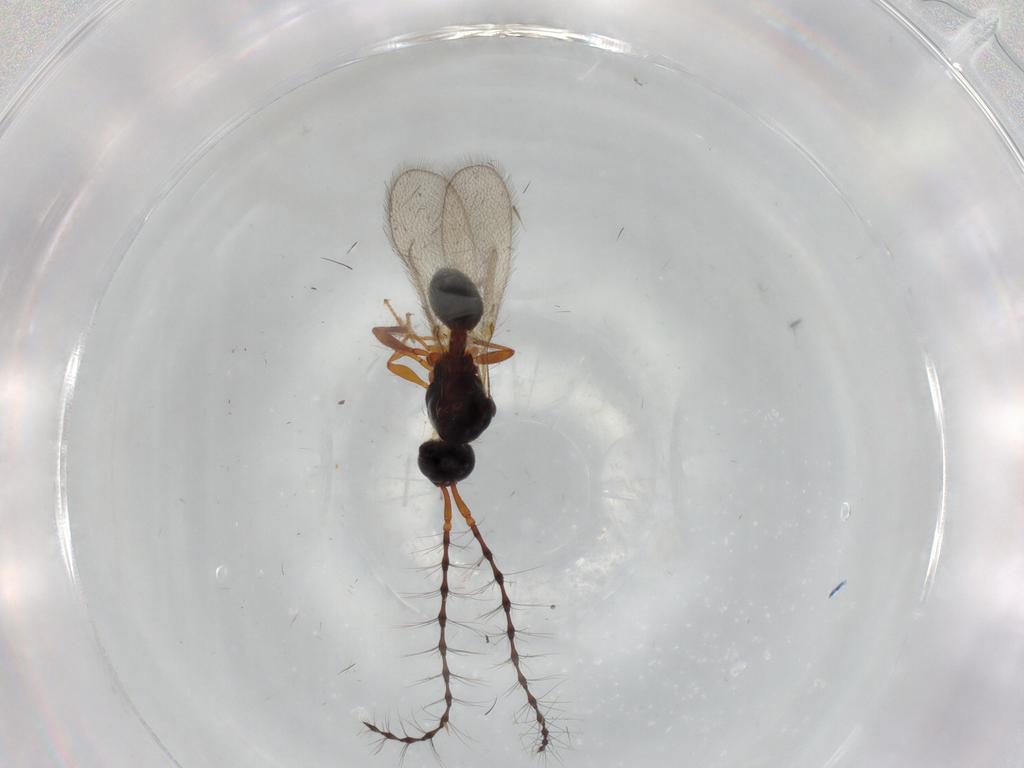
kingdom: Animalia
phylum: Arthropoda
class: Insecta
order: Hymenoptera
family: Diapriidae
